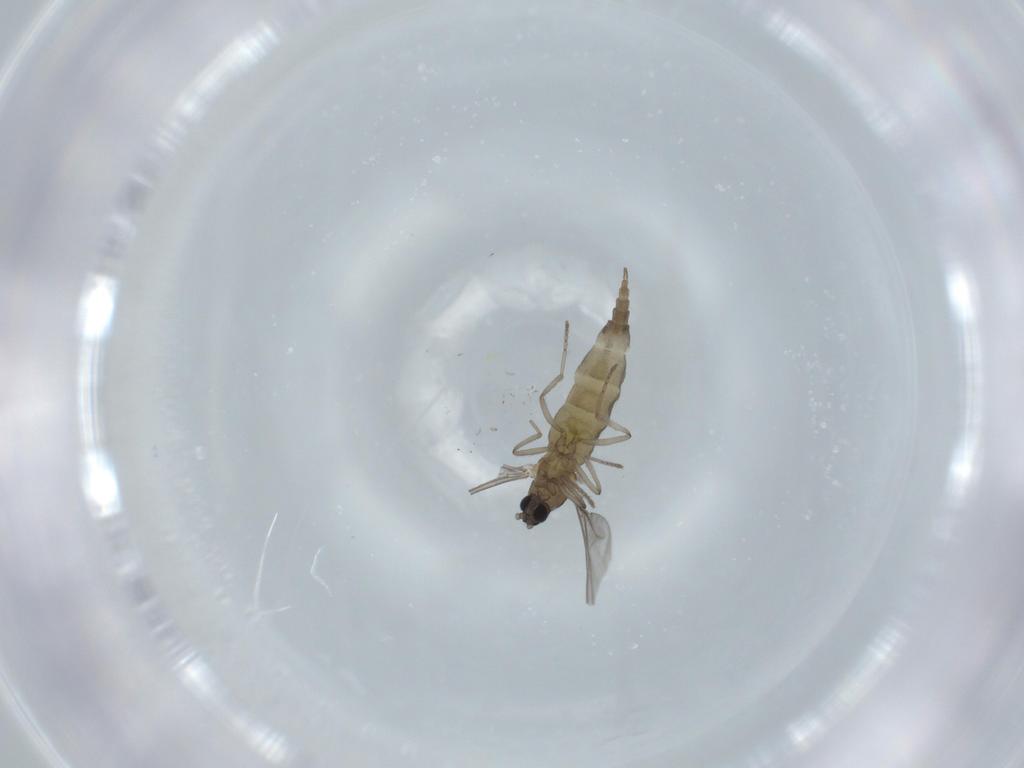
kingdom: Animalia
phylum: Arthropoda
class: Insecta
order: Diptera
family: Cecidomyiidae
